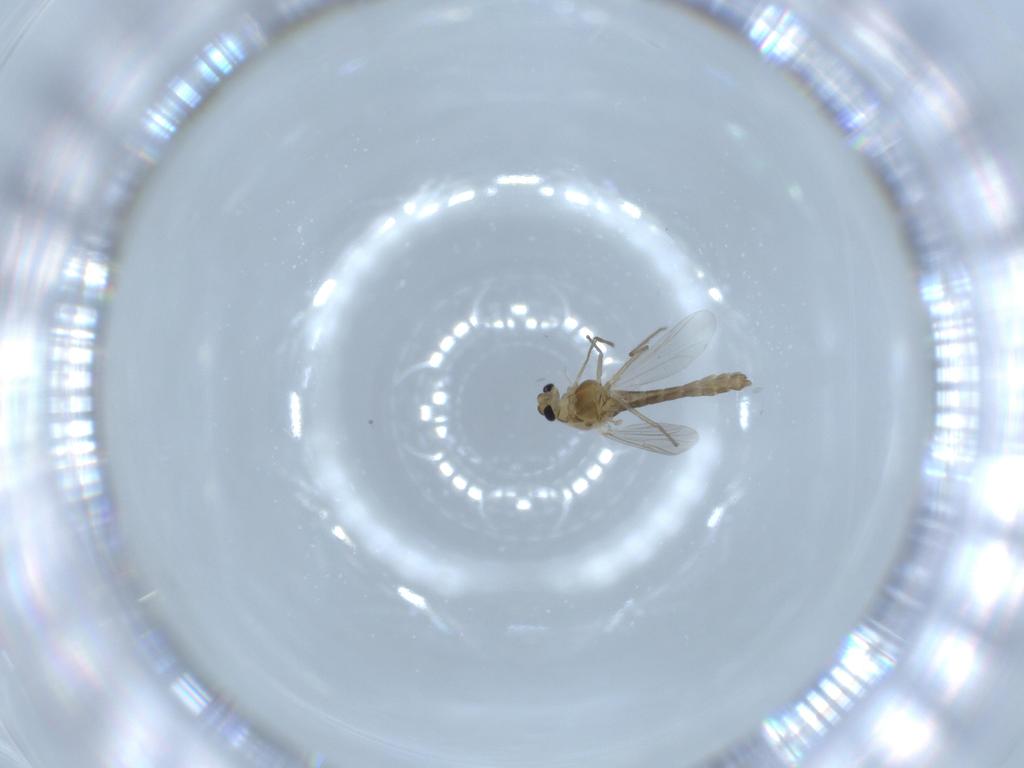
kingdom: Animalia
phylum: Arthropoda
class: Insecta
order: Diptera
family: Chironomidae
